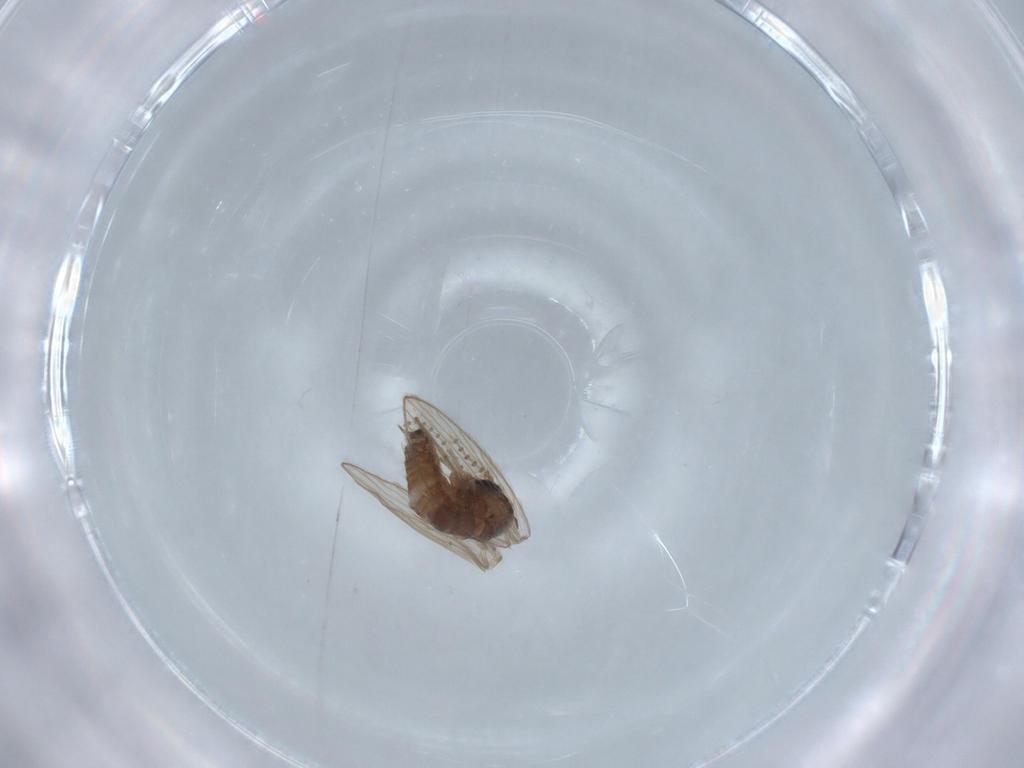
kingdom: Animalia
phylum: Arthropoda
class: Insecta
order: Diptera
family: Psychodidae
